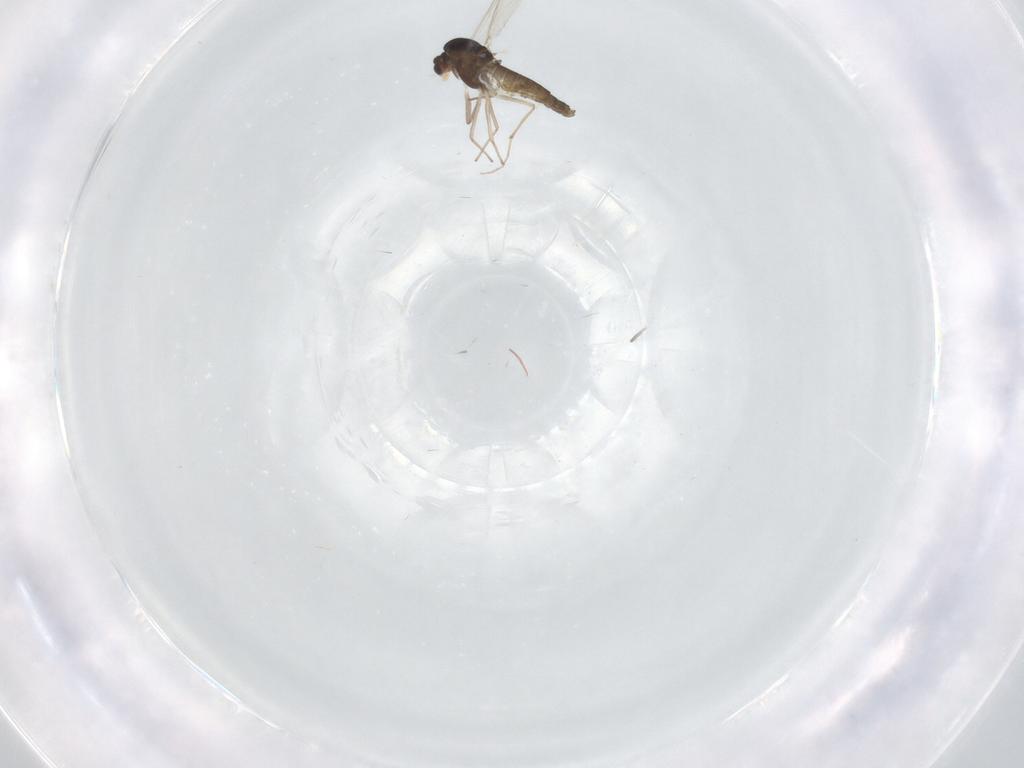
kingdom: Animalia
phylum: Arthropoda
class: Insecta
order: Diptera
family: Chironomidae
